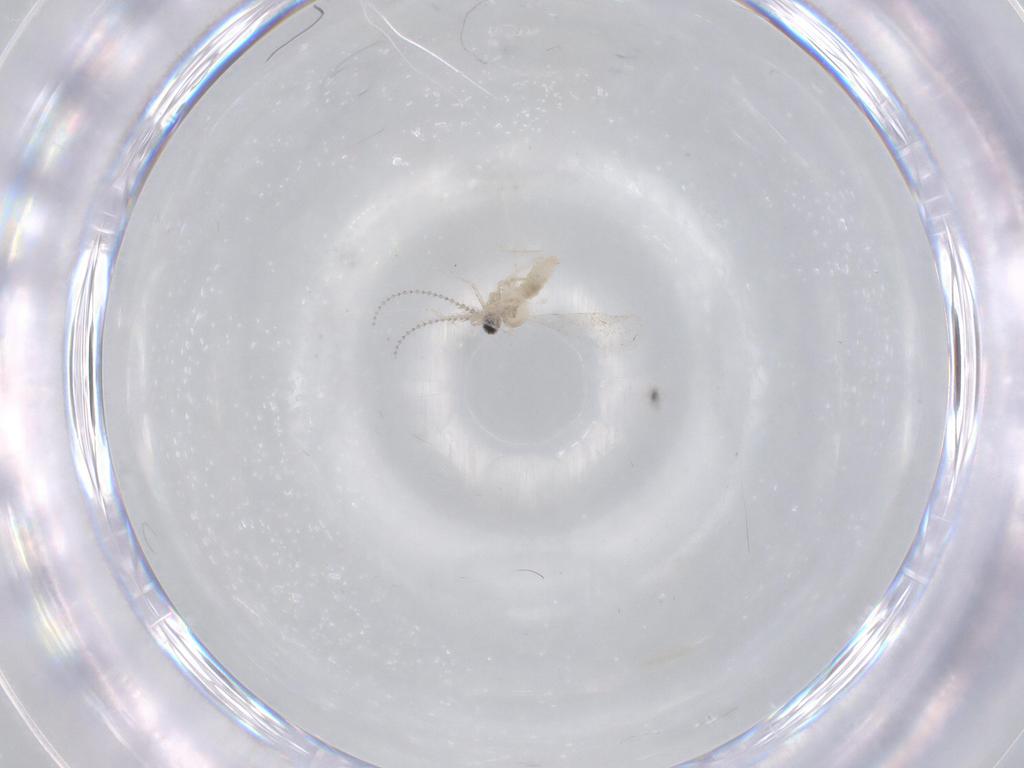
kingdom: Animalia
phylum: Arthropoda
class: Insecta
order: Diptera
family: Cecidomyiidae
